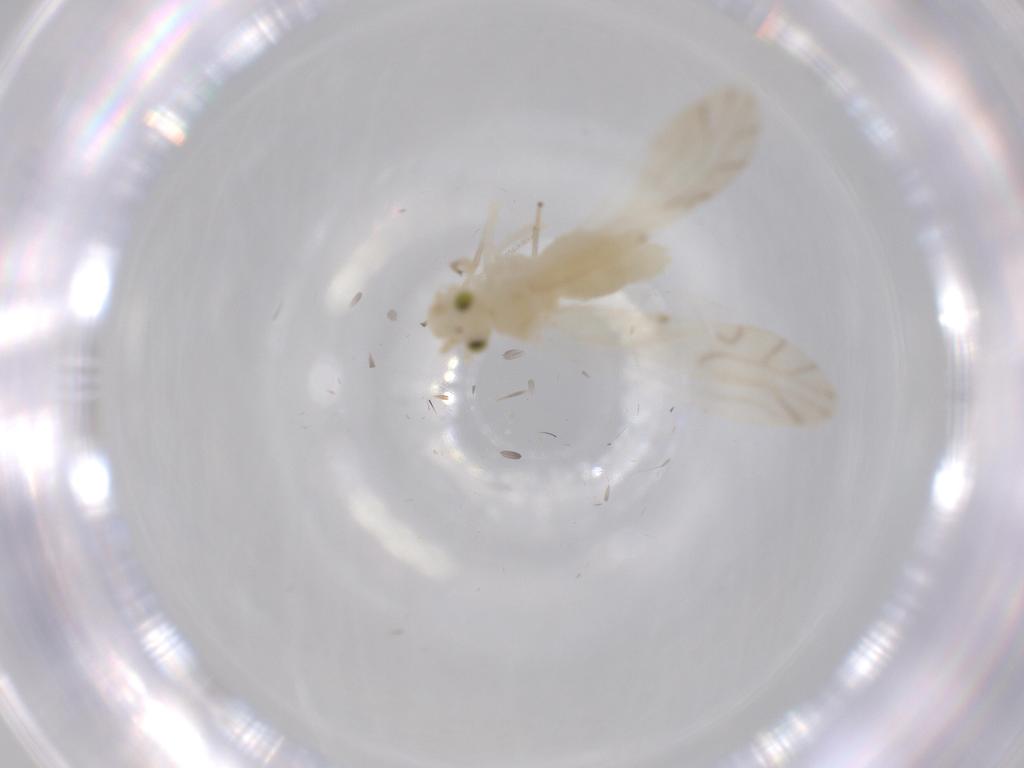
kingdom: Animalia
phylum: Arthropoda
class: Insecta
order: Psocodea
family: Caeciliusidae
